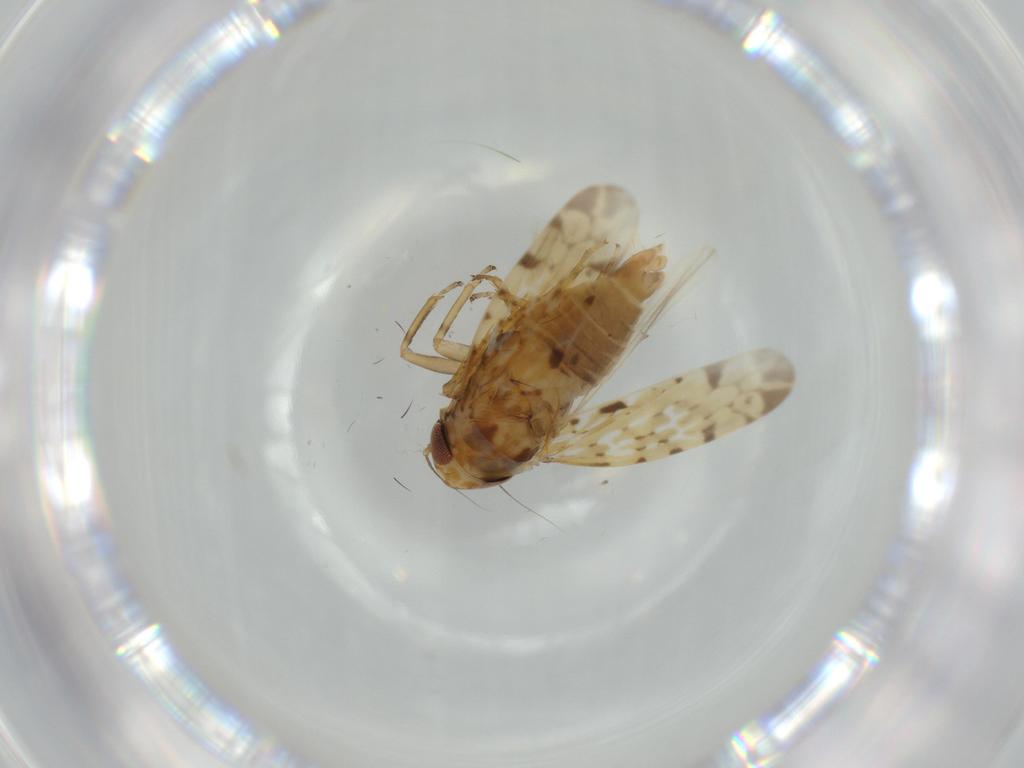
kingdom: Animalia
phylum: Arthropoda
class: Insecta
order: Hemiptera
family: Cicadellidae
